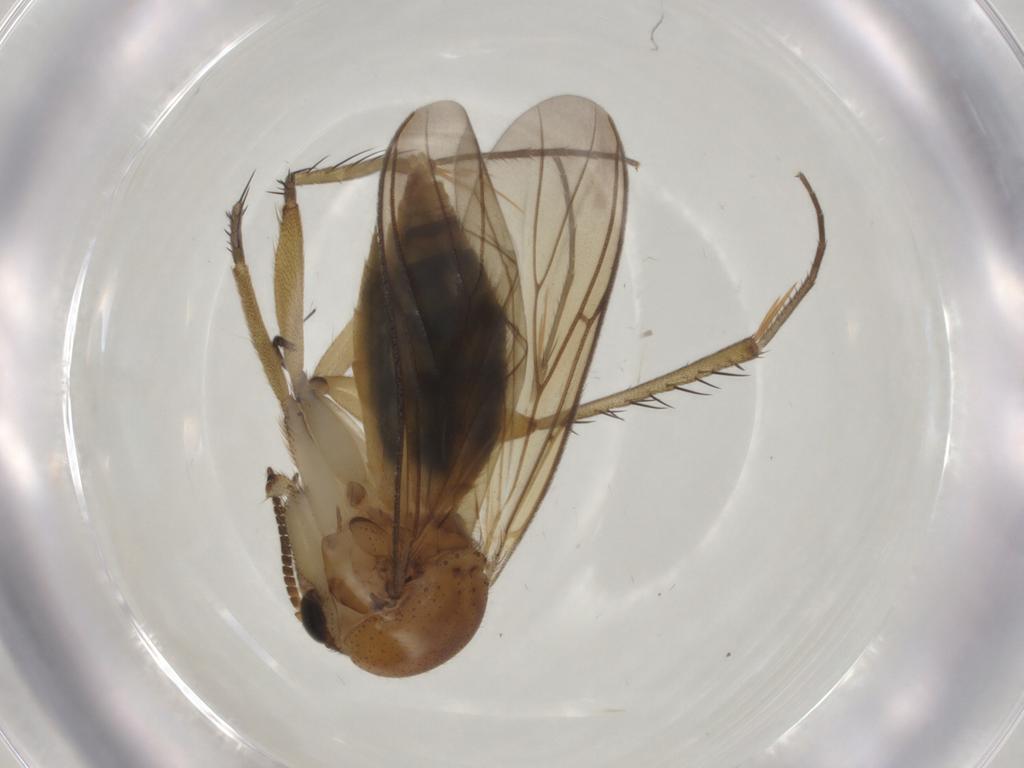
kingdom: Animalia
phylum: Arthropoda
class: Insecta
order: Diptera
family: Mycetophilidae
